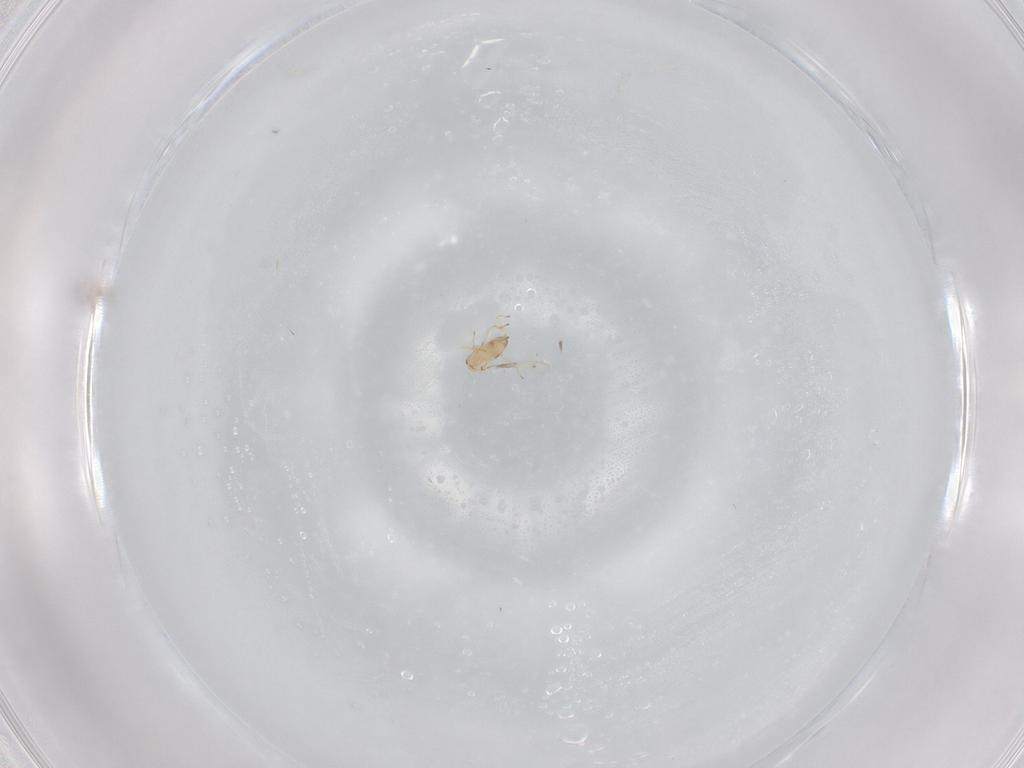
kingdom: Animalia
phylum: Arthropoda
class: Insecta
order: Hymenoptera
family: Trichogrammatidae
